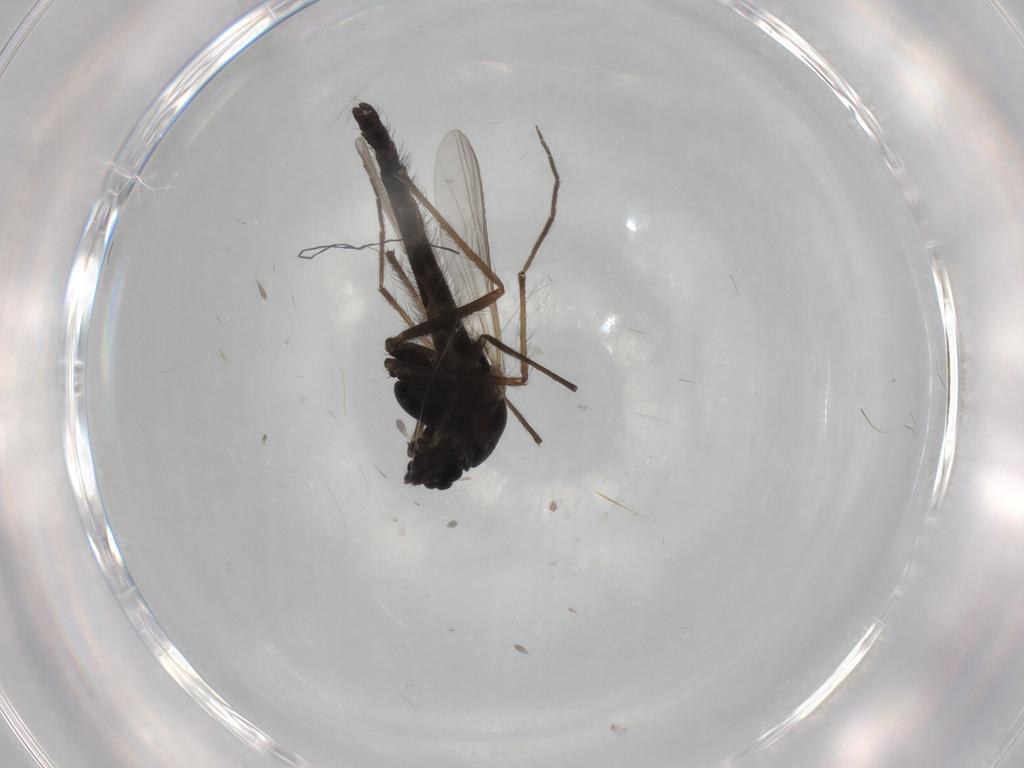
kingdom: Animalia
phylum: Arthropoda
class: Insecta
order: Diptera
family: Chironomidae
